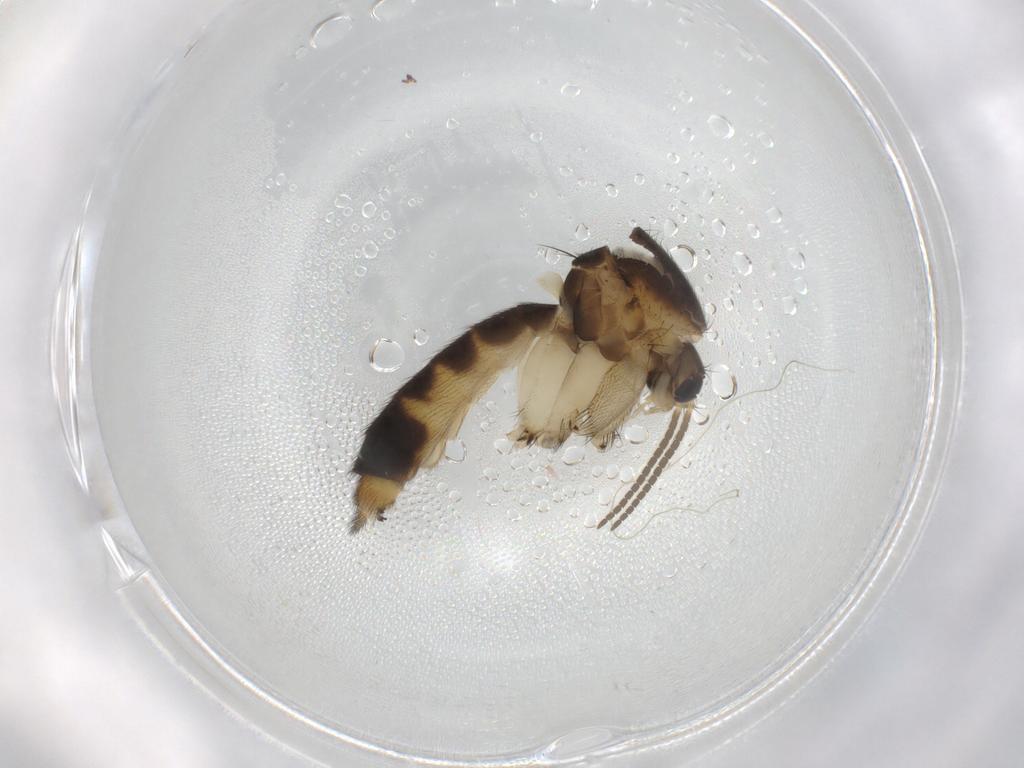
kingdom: Animalia
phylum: Arthropoda
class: Insecta
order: Diptera
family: Mycetophilidae
